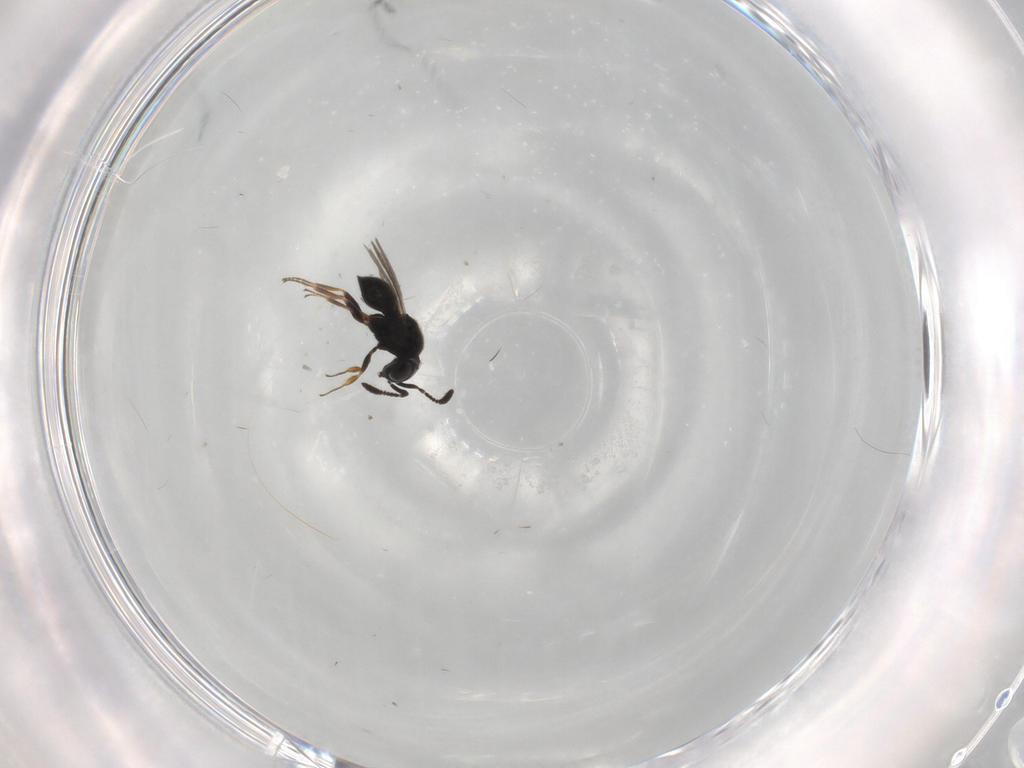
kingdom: Animalia
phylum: Arthropoda
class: Insecta
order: Hymenoptera
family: Scelionidae
